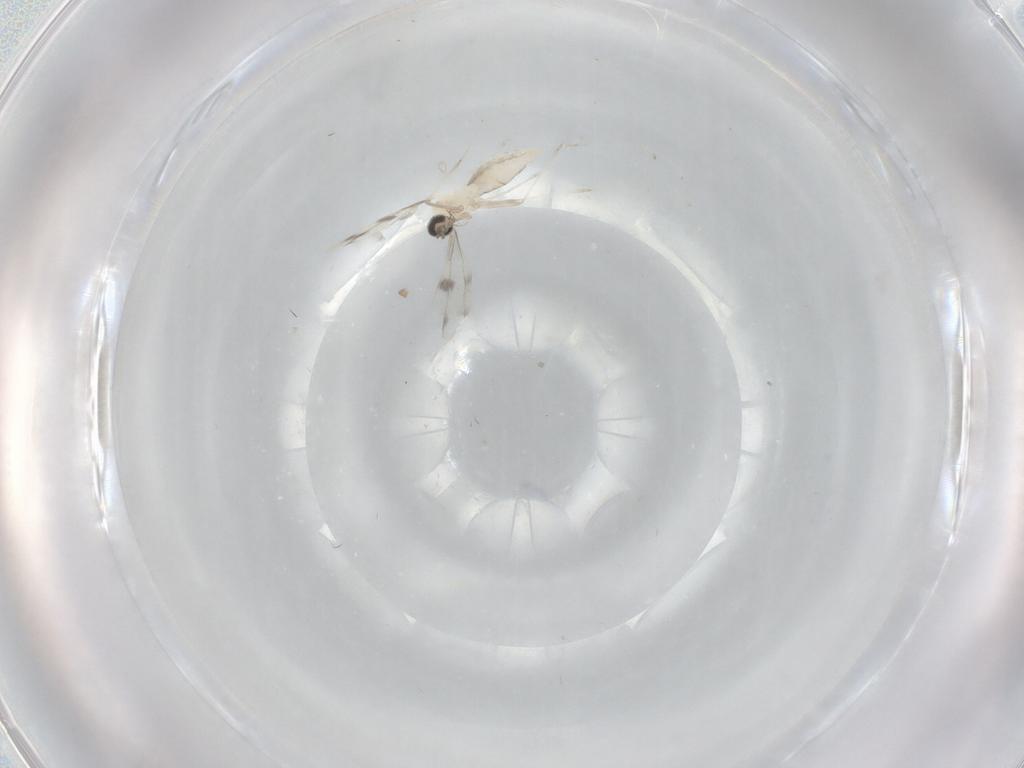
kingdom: Animalia
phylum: Arthropoda
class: Insecta
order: Diptera
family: Cecidomyiidae
